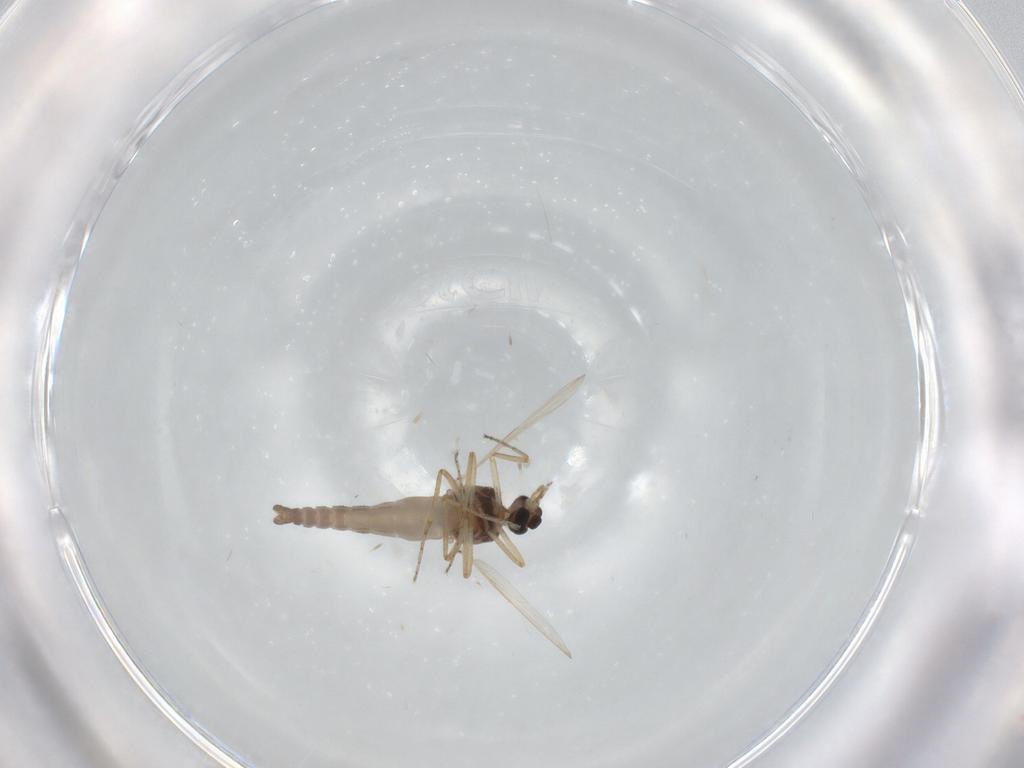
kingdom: Animalia
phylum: Arthropoda
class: Insecta
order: Diptera
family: Ceratopogonidae
